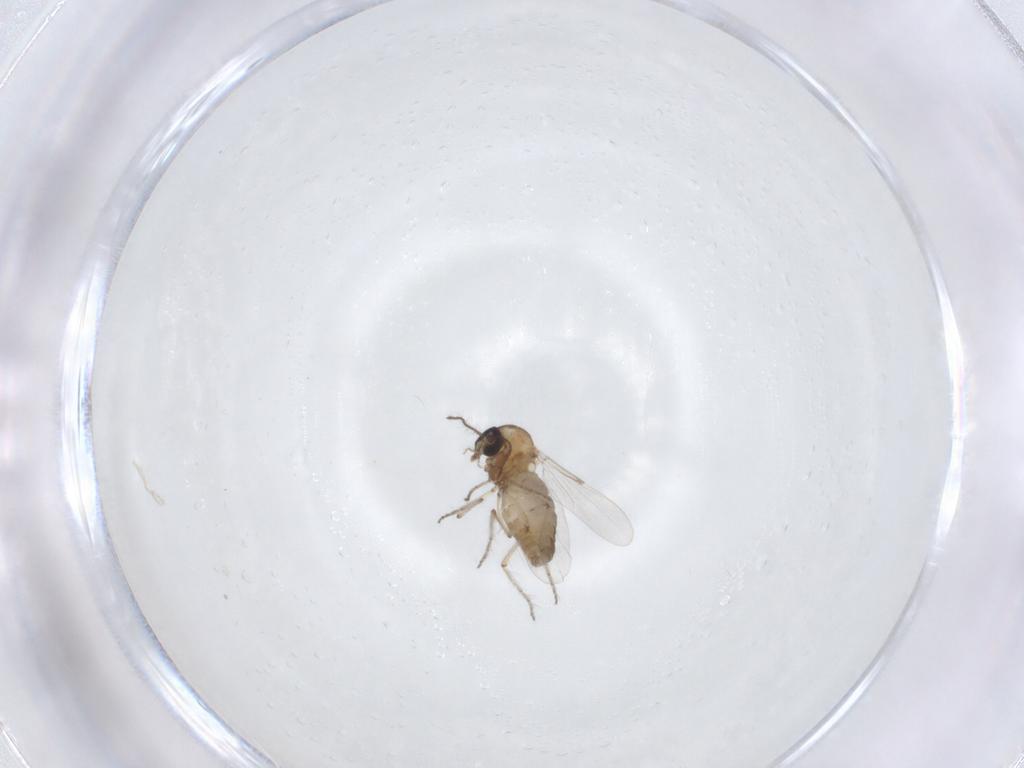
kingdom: Animalia
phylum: Arthropoda
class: Insecta
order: Diptera
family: Ceratopogonidae
